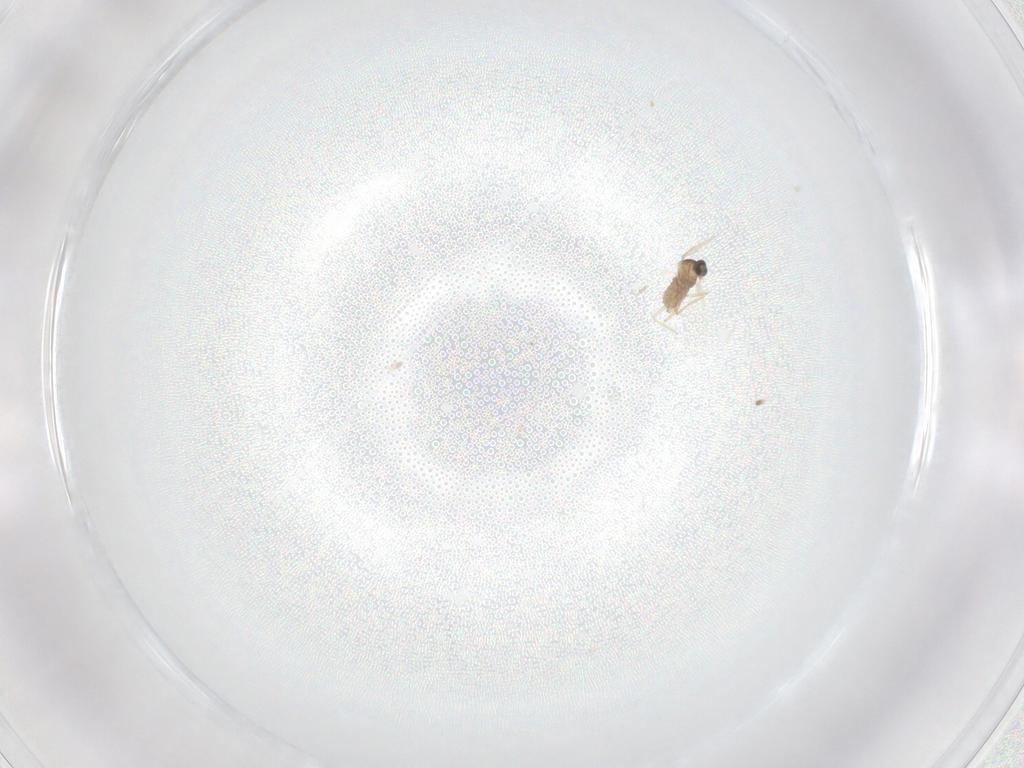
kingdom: Animalia
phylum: Arthropoda
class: Insecta
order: Diptera
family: Cecidomyiidae
